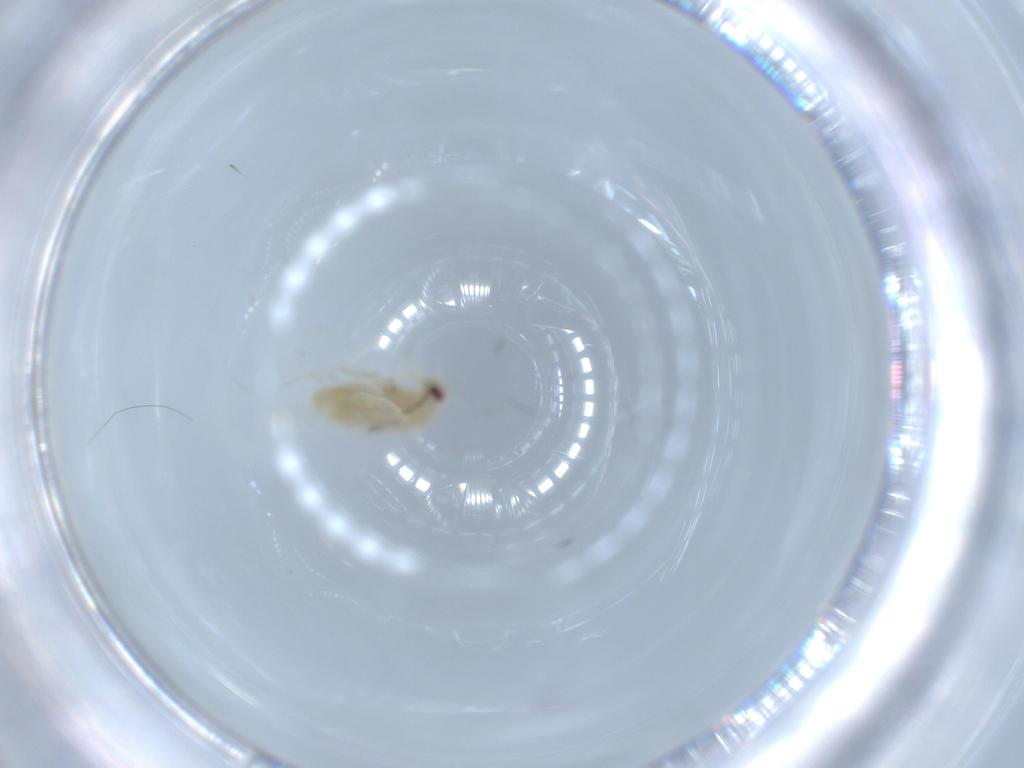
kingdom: Animalia
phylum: Arthropoda
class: Insecta
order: Hemiptera
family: Aleyrodidae
